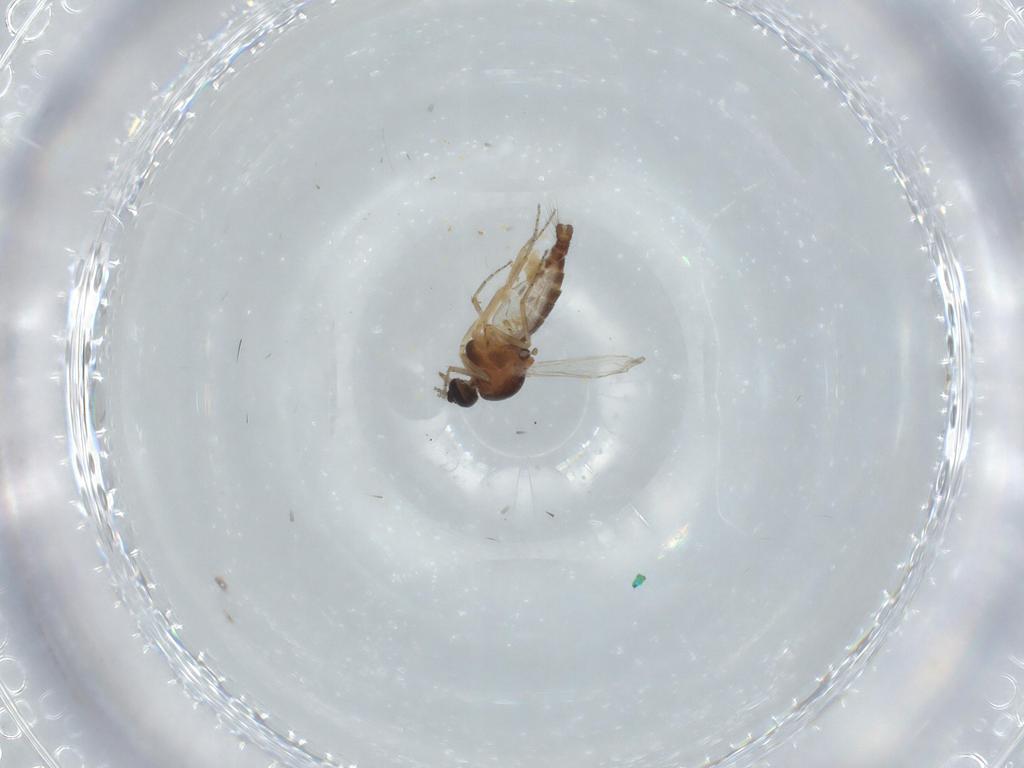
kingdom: Animalia
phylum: Arthropoda
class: Insecta
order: Diptera
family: Ceratopogonidae
